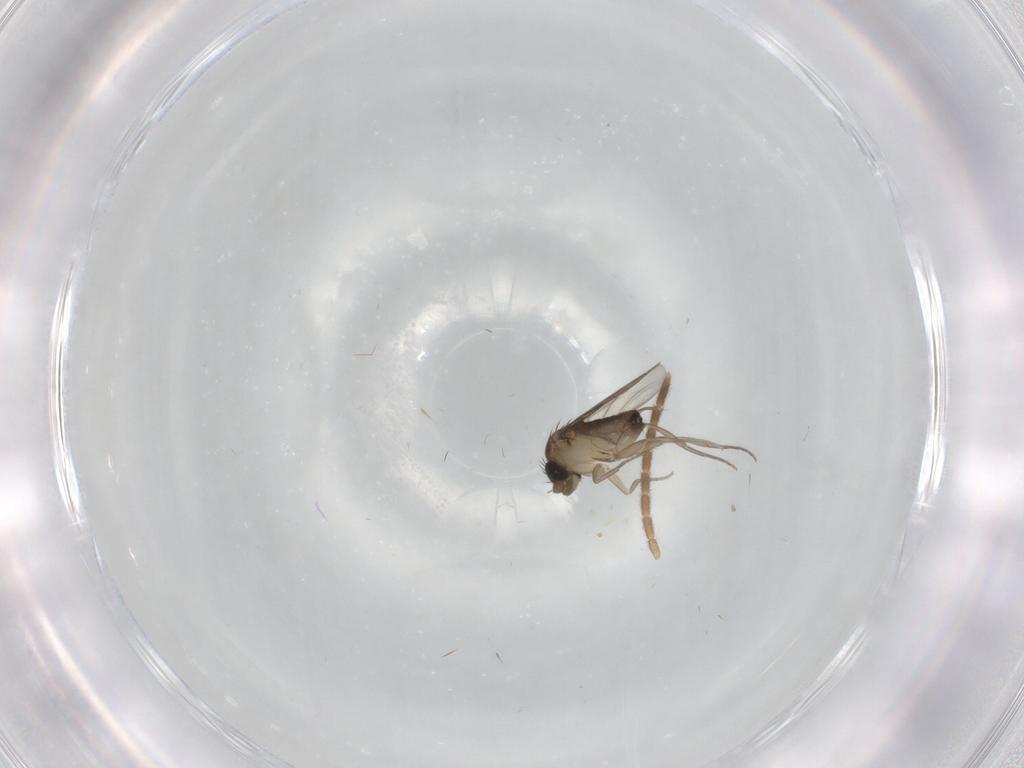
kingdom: Animalia
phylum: Arthropoda
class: Insecta
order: Diptera
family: Phoridae
